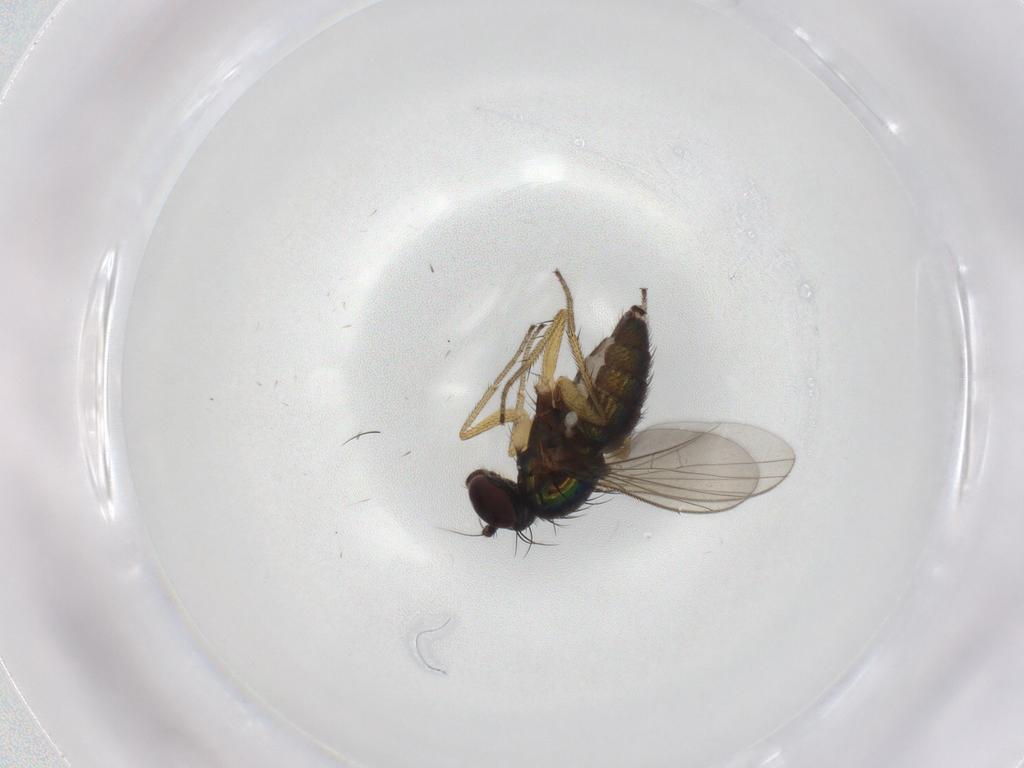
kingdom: Animalia
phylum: Arthropoda
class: Insecta
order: Diptera
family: Dolichopodidae
